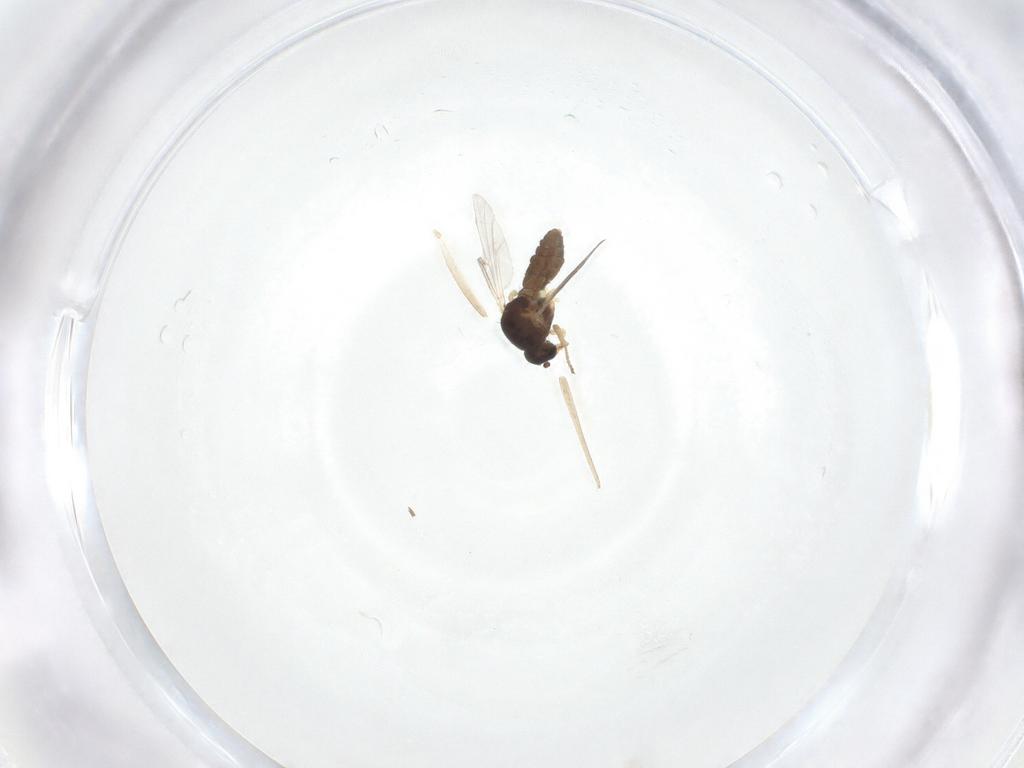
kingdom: Animalia
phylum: Arthropoda
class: Insecta
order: Diptera
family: Ceratopogonidae
